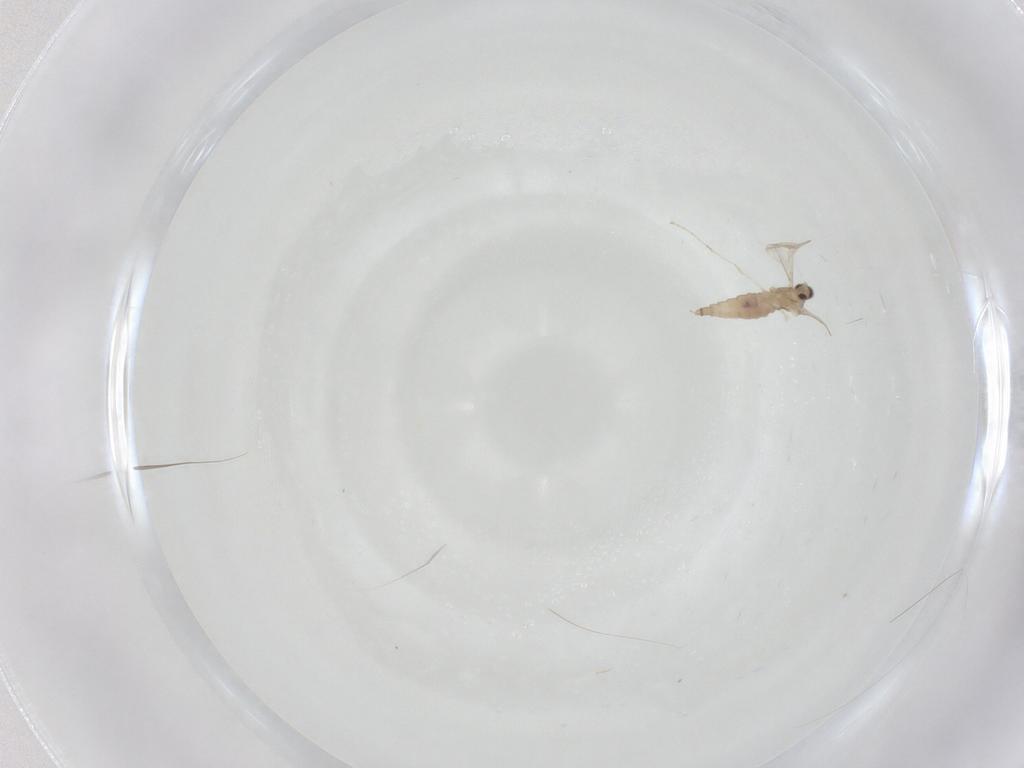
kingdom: Animalia
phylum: Arthropoda
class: Insecta
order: Diptera
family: Cecidomyiidae
